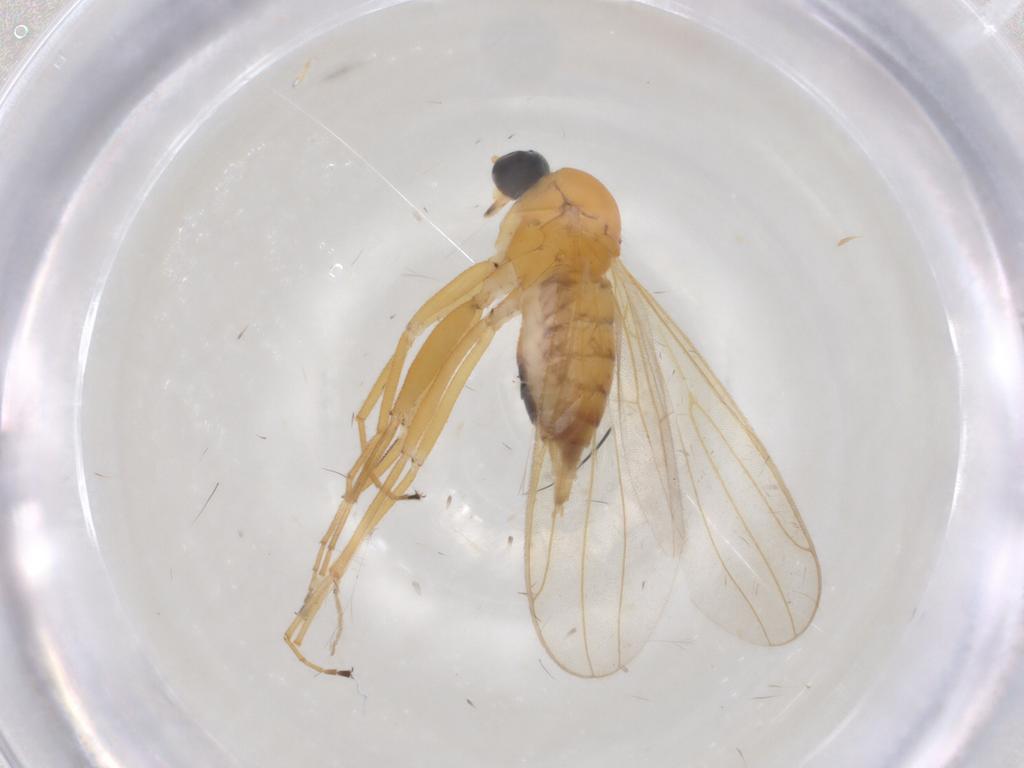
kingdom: Animalia
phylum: Arthropoda
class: Insecta
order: Diptera
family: Hybotidae
